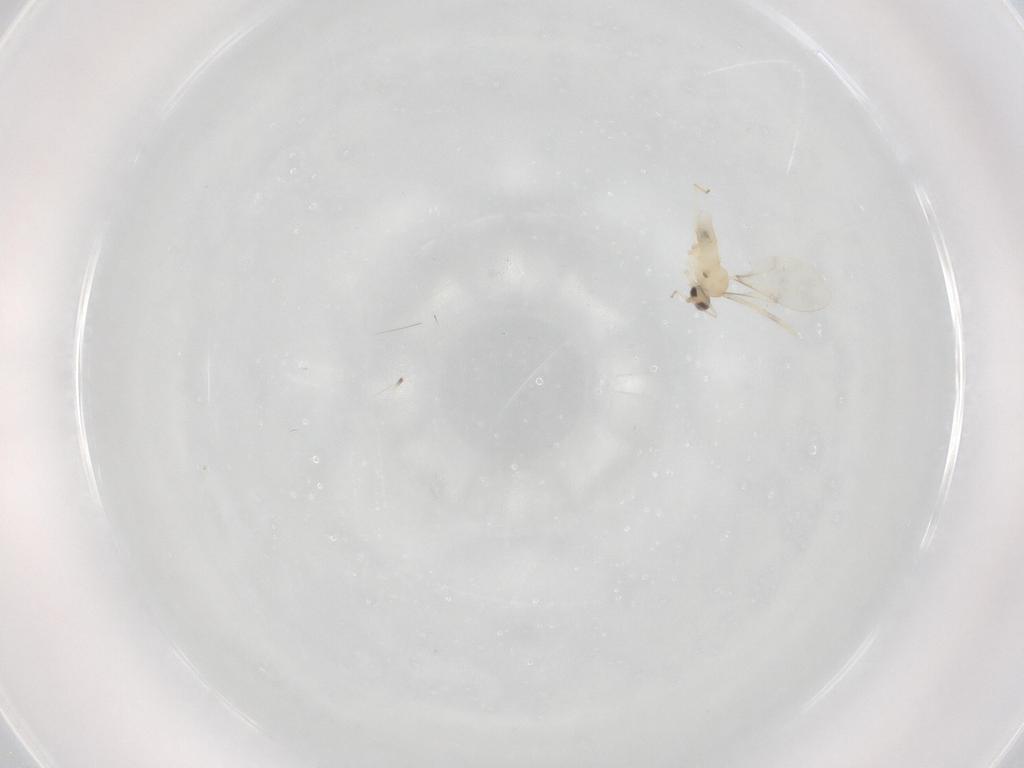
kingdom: Animalia
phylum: Arthropoda
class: Insecta
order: Diptera
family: Cecidomyiidae
